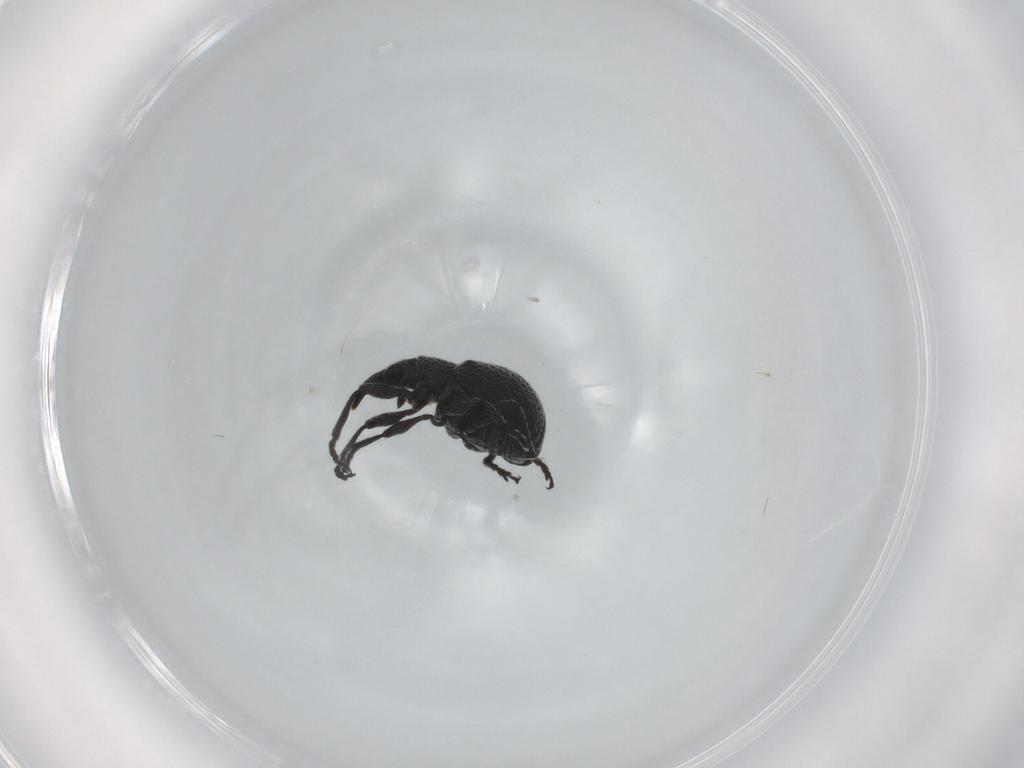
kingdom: Animalia
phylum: Arthropoda
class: Insecta
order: Coleoptera
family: Brentidae
